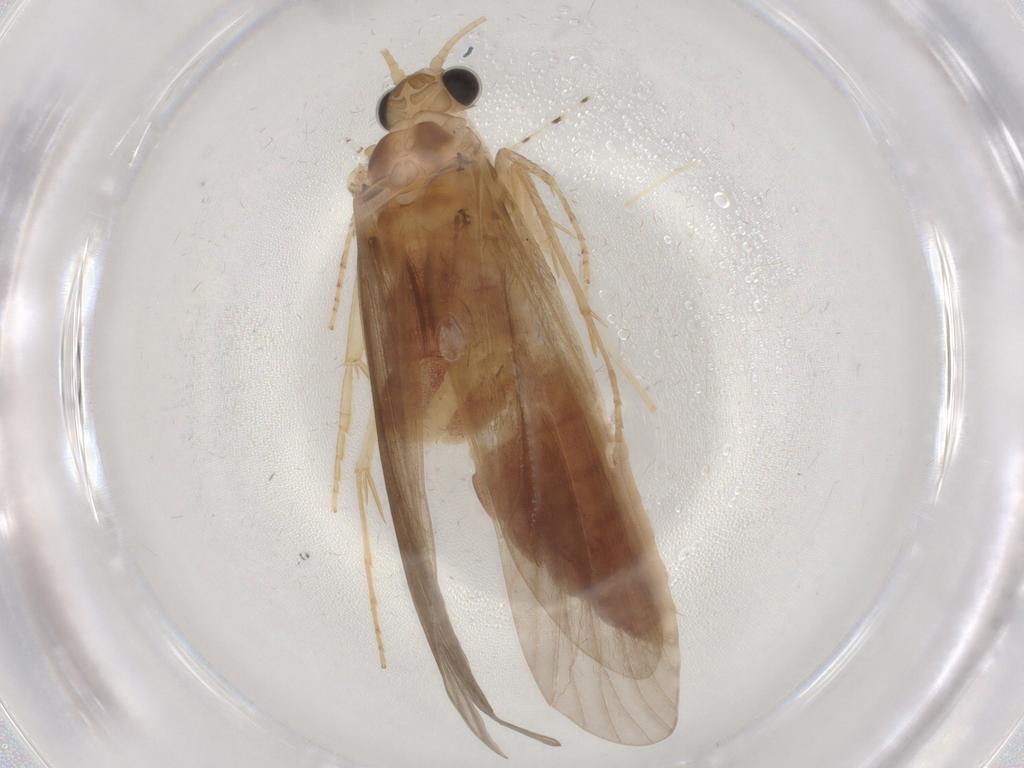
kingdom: Animalia
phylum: Arthropoda
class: Insecta
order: Trichoptera
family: Ecnomidae
